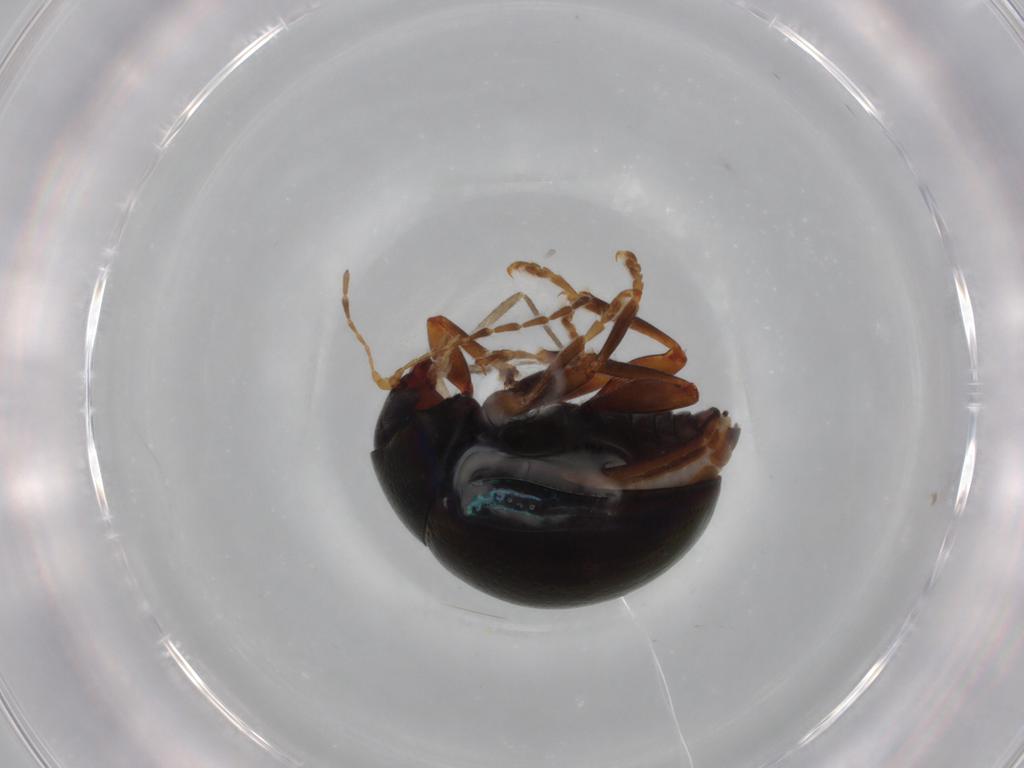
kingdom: Animalia
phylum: Arthropoda
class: Insecta
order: Coleoptera
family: Chrysomelidae
